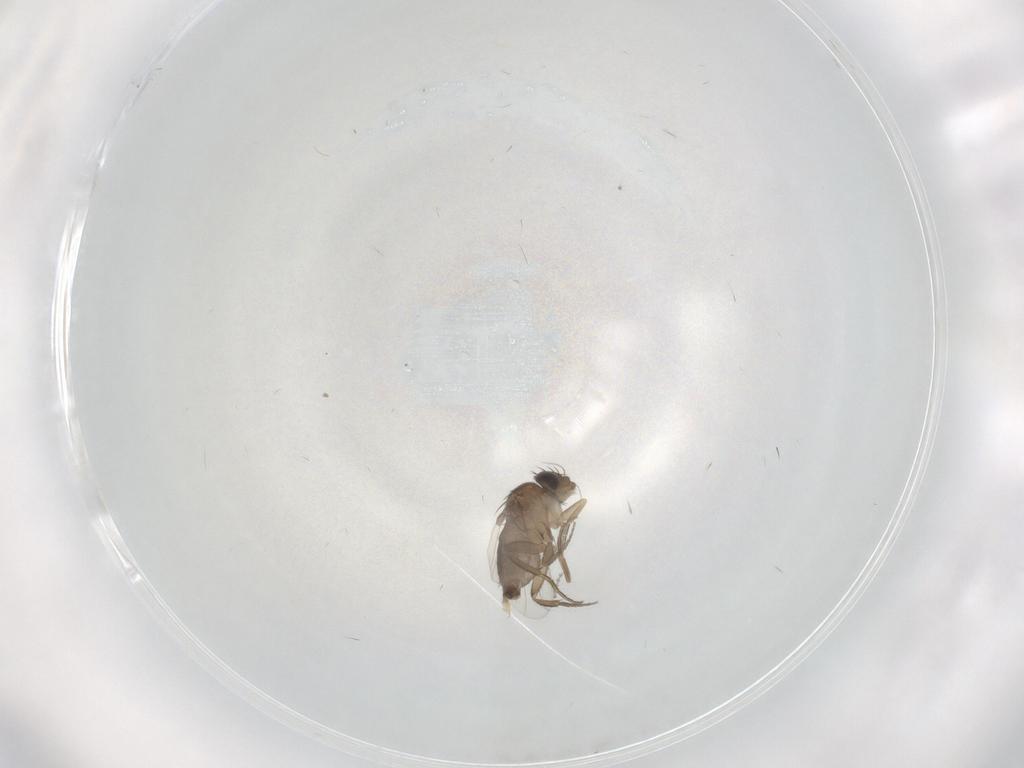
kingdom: Animalia
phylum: Arthropoda
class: Insecta
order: Diptera
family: Phoridae
